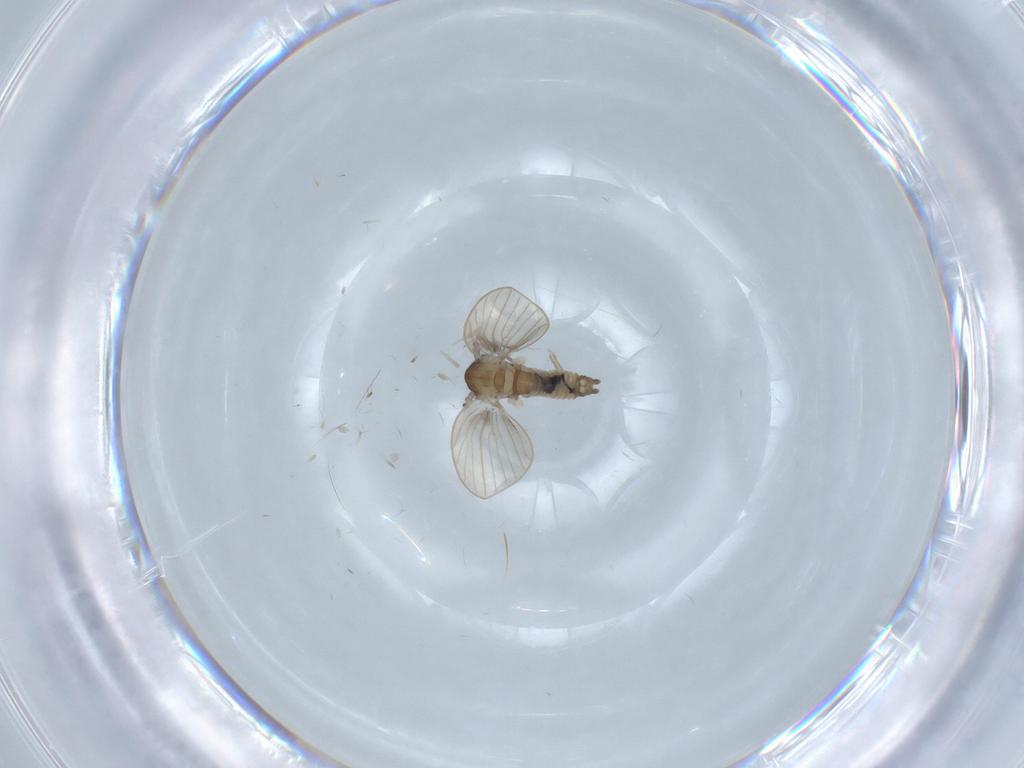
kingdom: Animalia
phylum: Arthropoda
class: Insecta
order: Diptera
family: Psychodidae
